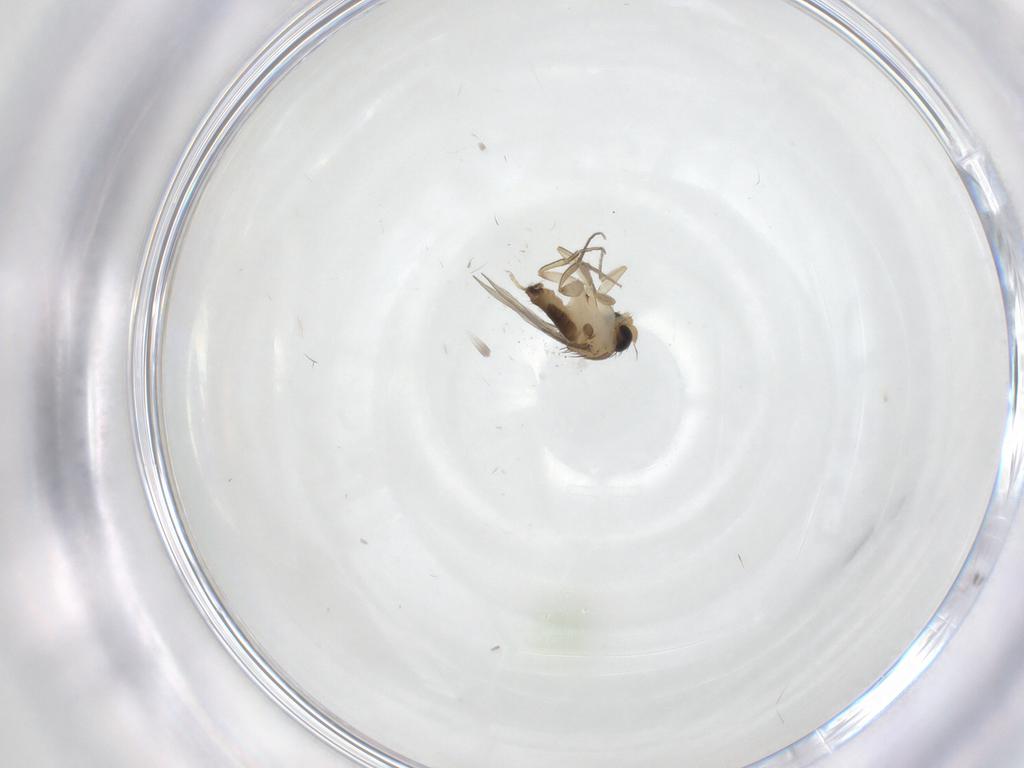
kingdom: Animalia
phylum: Arthropoda
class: Insecta
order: Diptera
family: Phoridae
